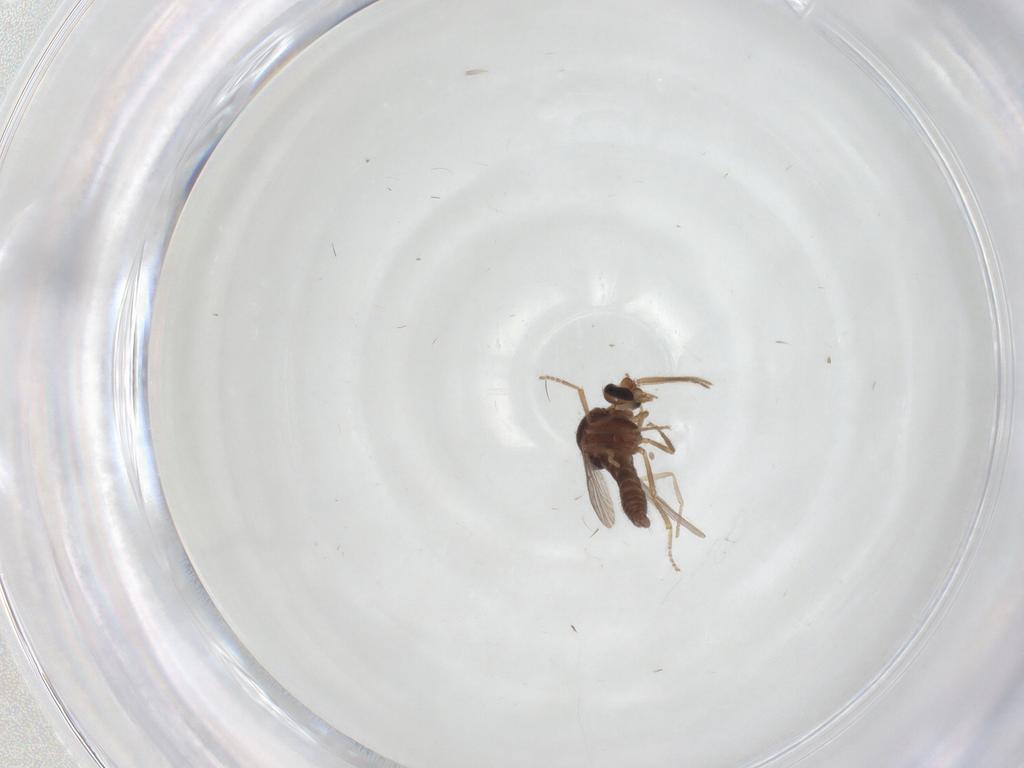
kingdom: Animalia
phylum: Arthropoda
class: Insecta
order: Diptera
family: Ceratopogonidae
